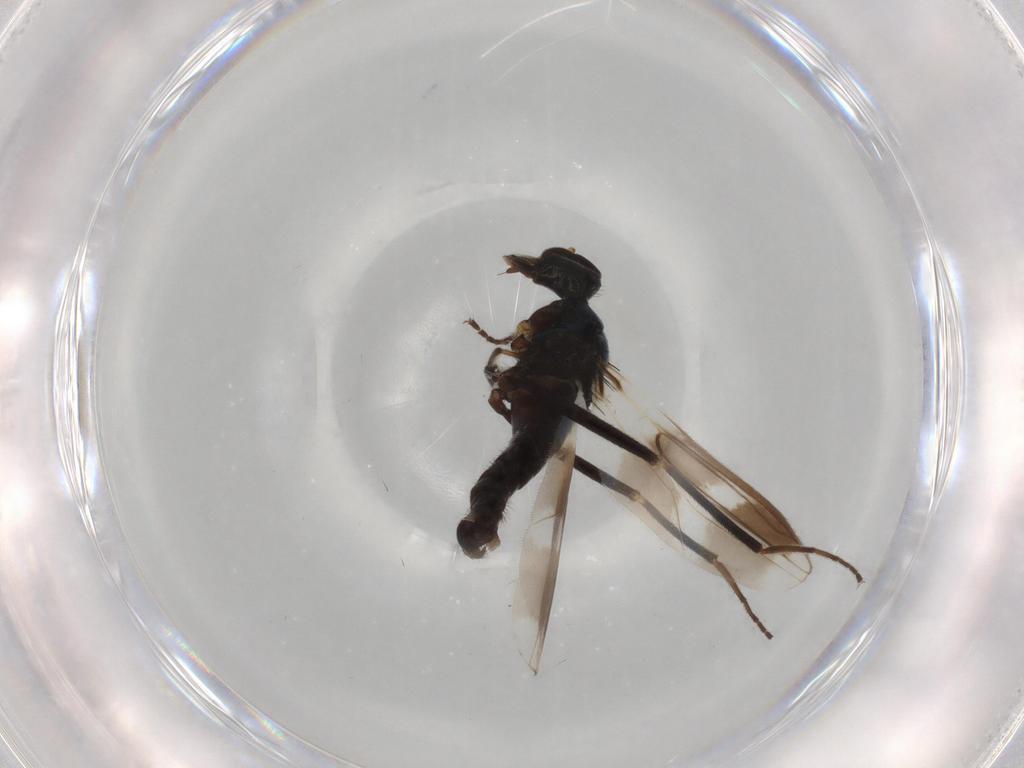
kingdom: Animalia
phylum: Arthropoda
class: Insecta
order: Diptera
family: Hybotidae
